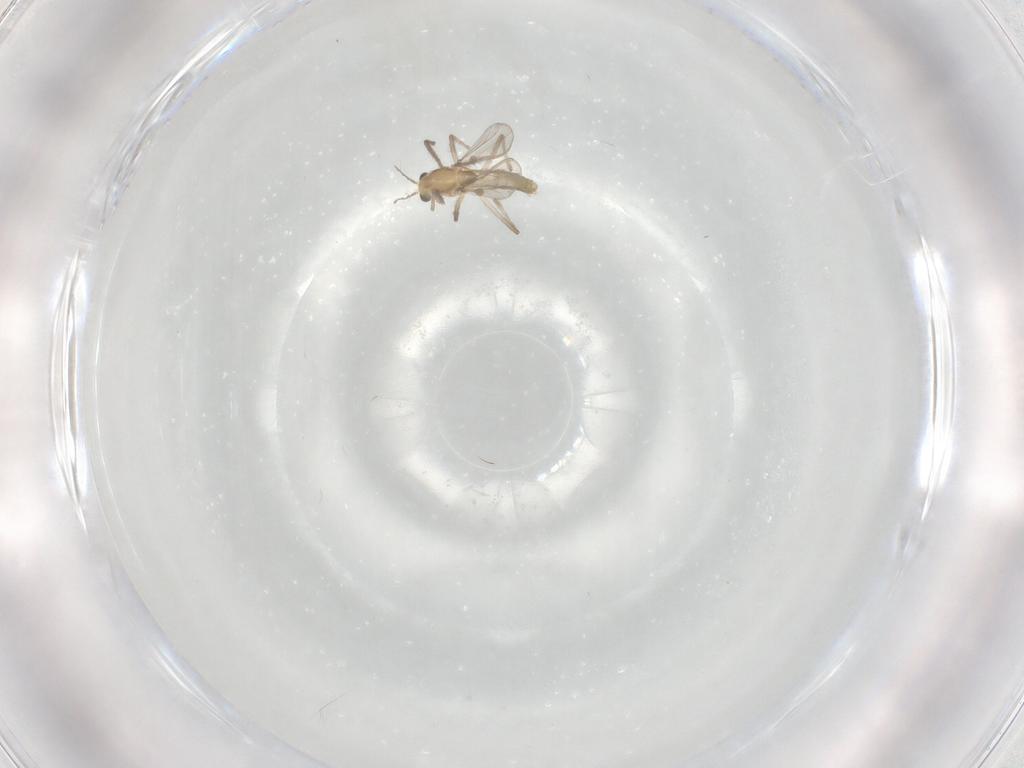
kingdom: Animalia
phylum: Arthropoda
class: Insecta
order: Diptera
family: Chironomidae
